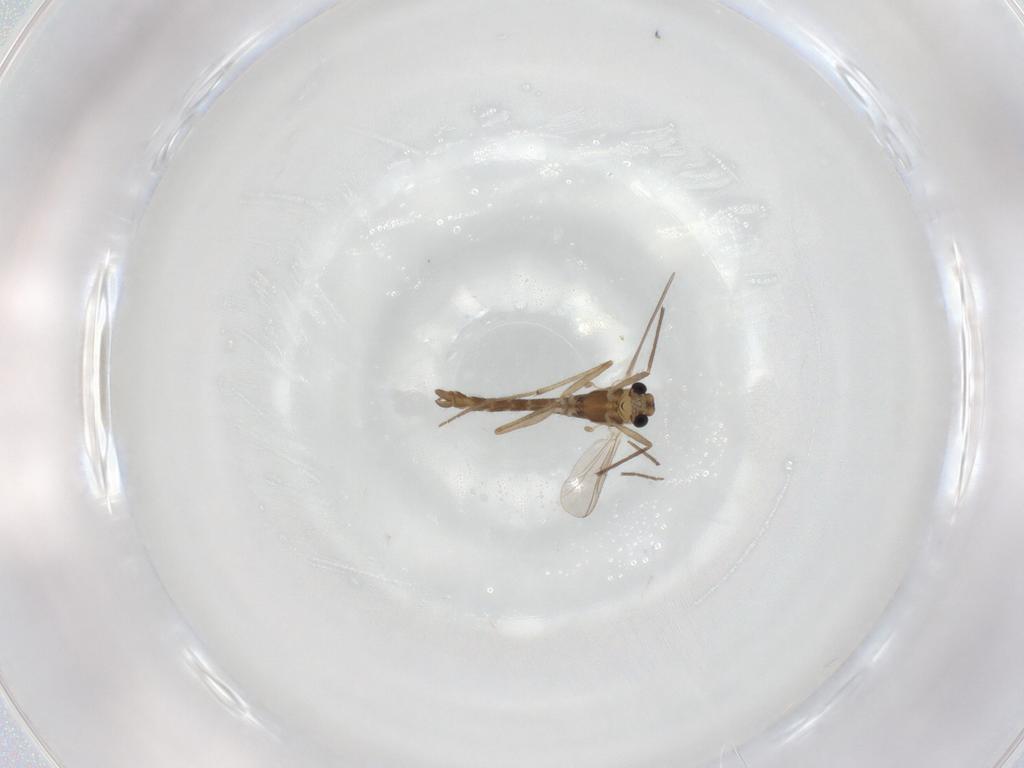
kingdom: Animalia
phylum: Arthropoda
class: Insecta
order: Diptera
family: Chironomidae
